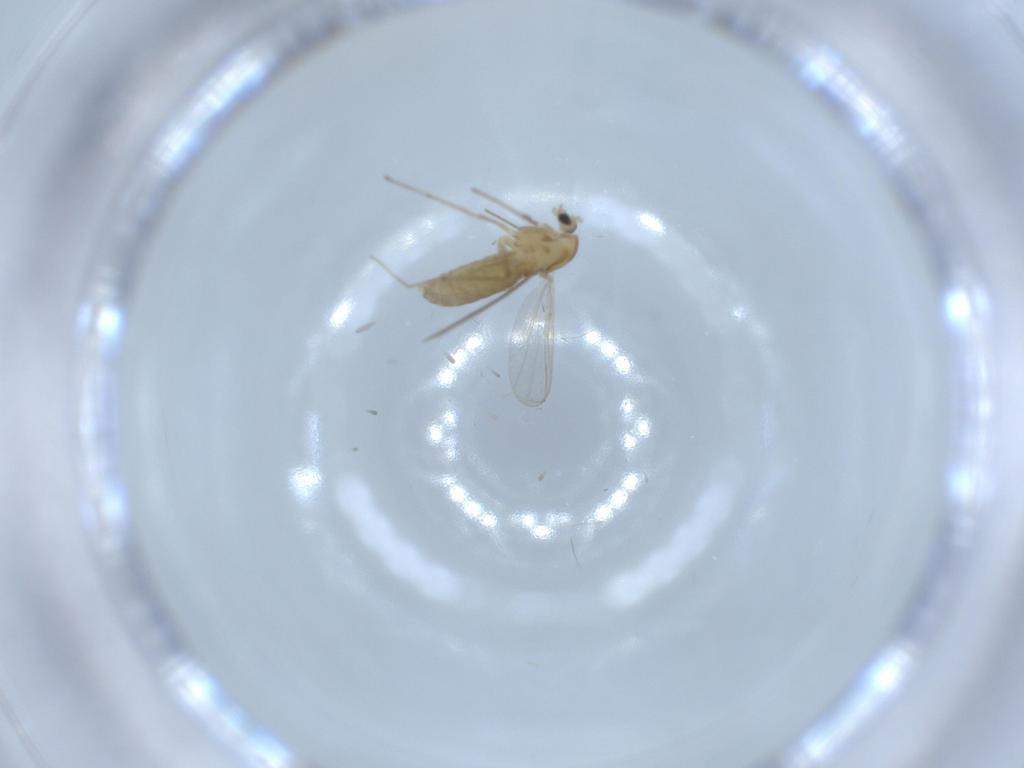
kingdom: Animalia
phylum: Arthropoda
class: Insecta
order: Diptera
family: Chironomidae
